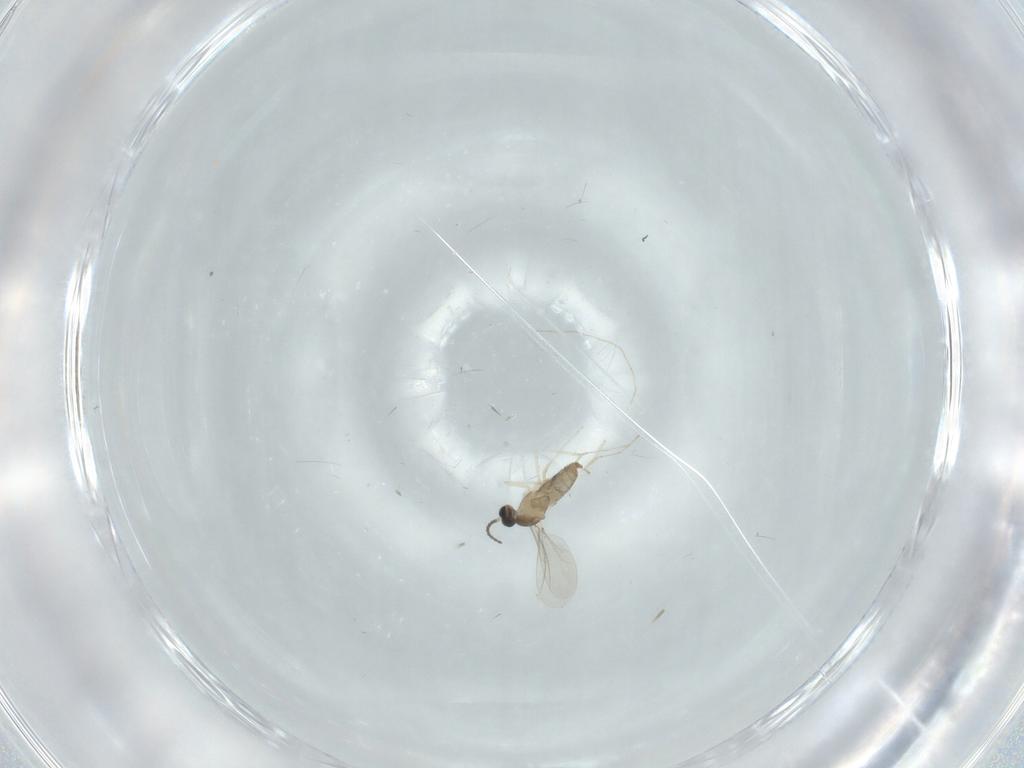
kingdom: Animalia
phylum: Arthropoda
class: Insecta
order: Diptera
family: Cecidomyiidae
